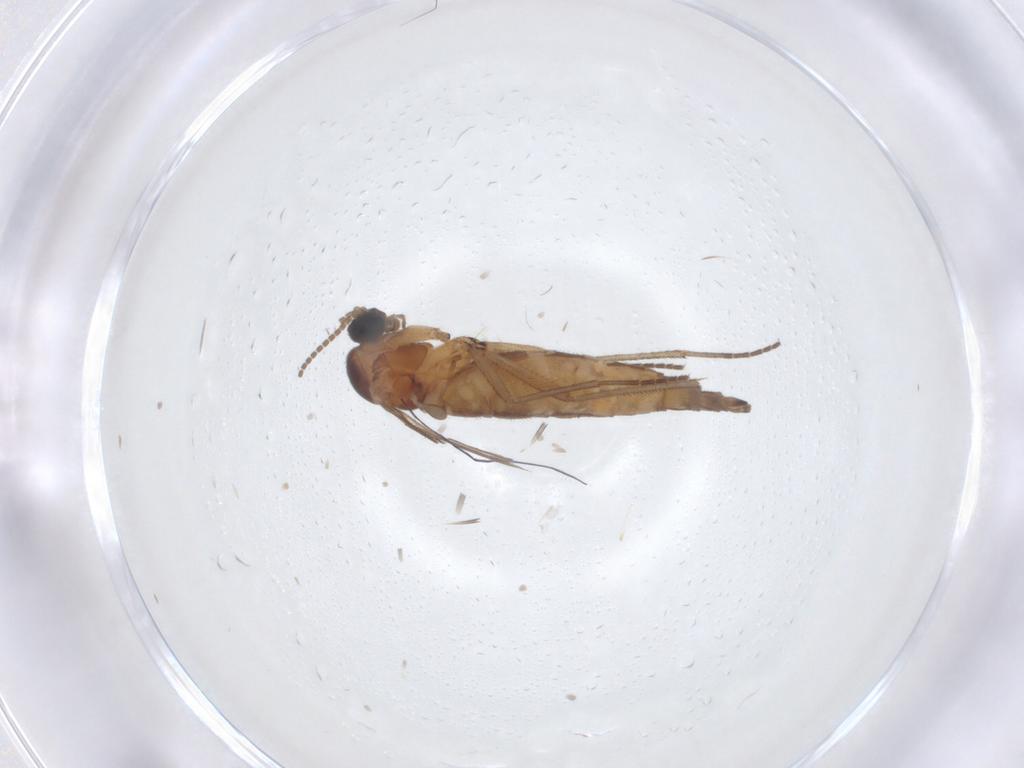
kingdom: Animalia
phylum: Arthropoda
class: Insecta
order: Diptera
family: Sciaridae
